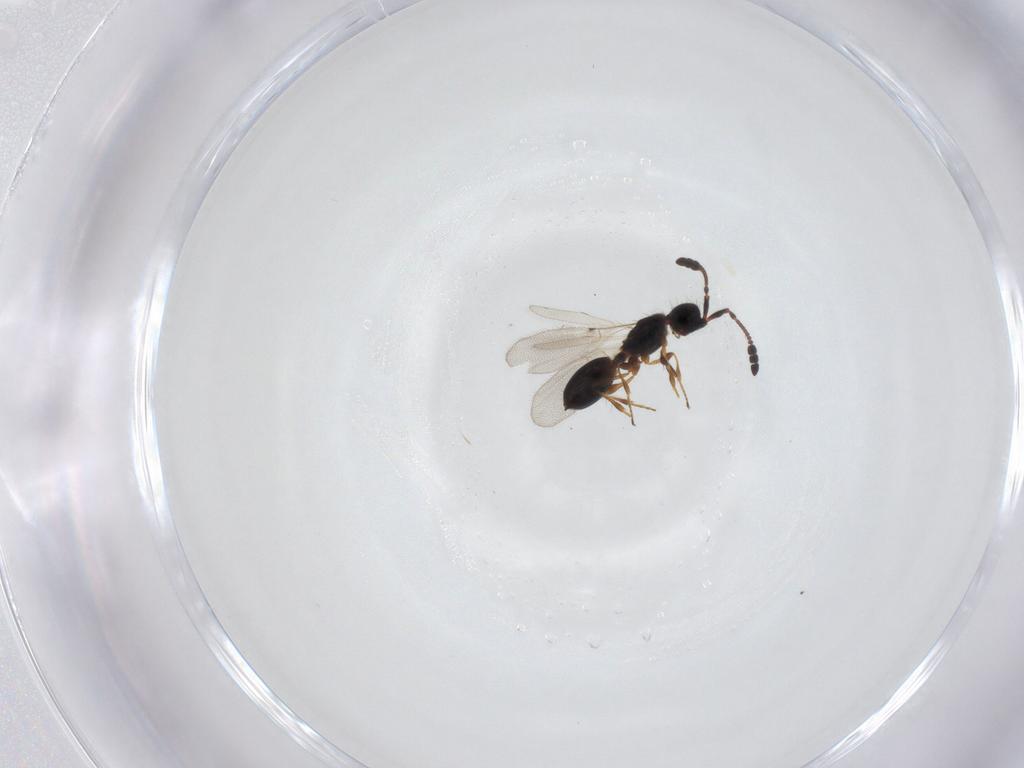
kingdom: Animalia
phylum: Arthropoda
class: Insecta
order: Hymenoptera
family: Diapriidae
